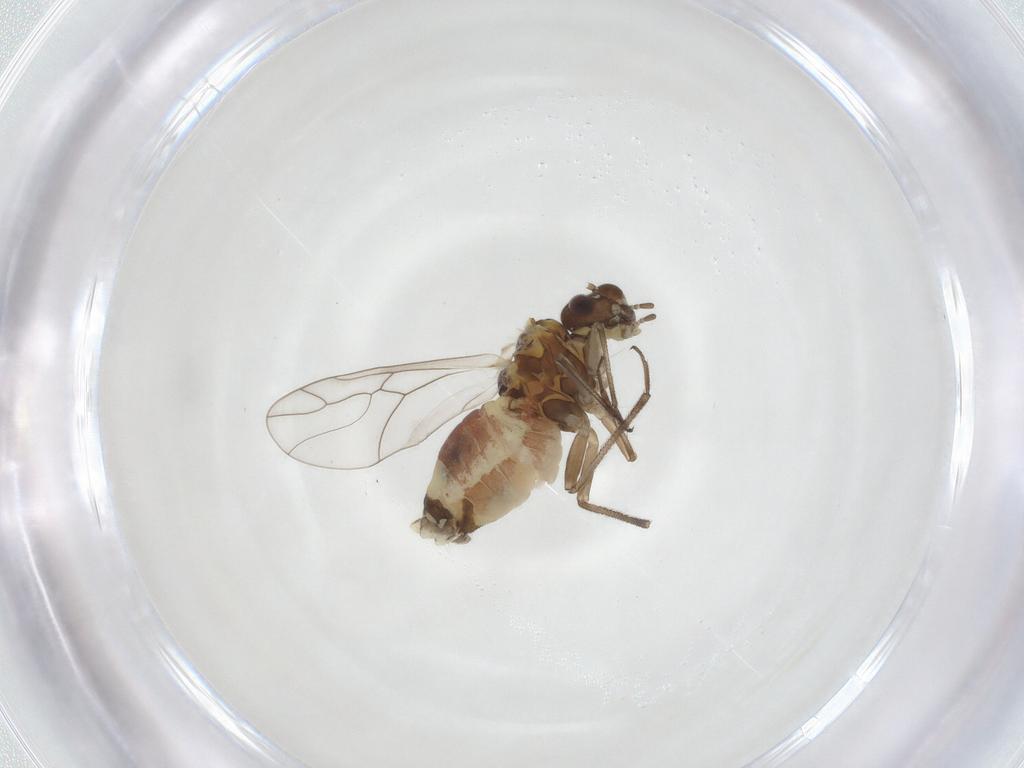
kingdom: Animalia
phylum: Arthropoda
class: Insecta
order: Psocodea
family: Elipsocidae
